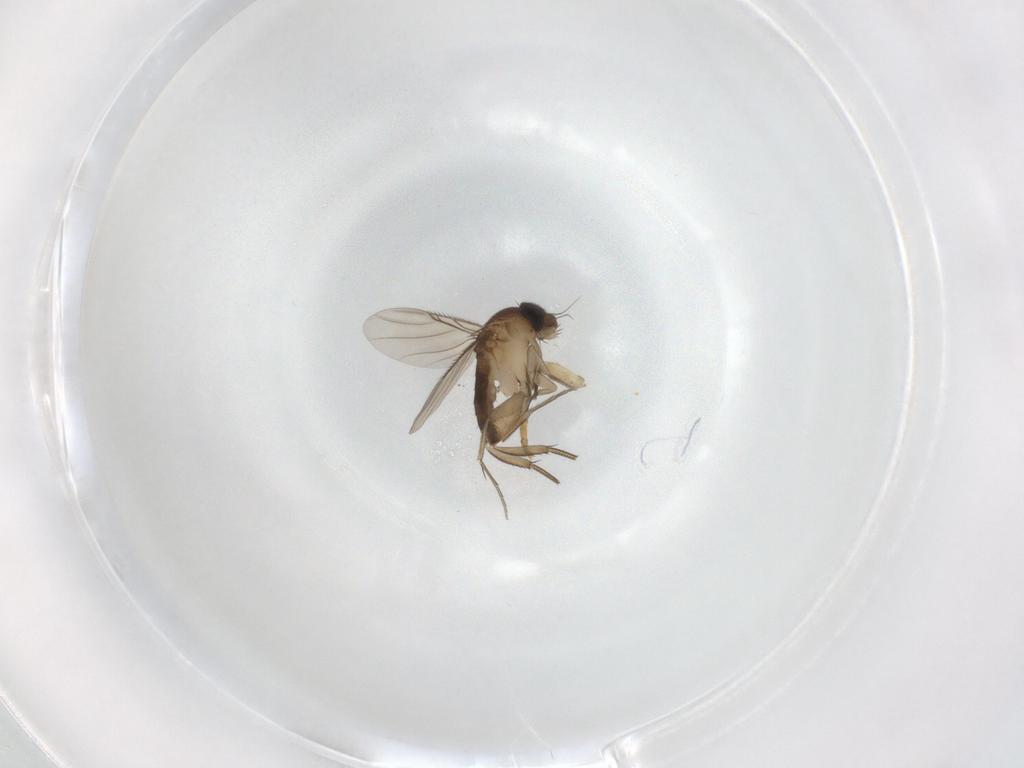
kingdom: Animalia
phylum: Arthropoda
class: Insecta
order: Diptera
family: Phoridae
